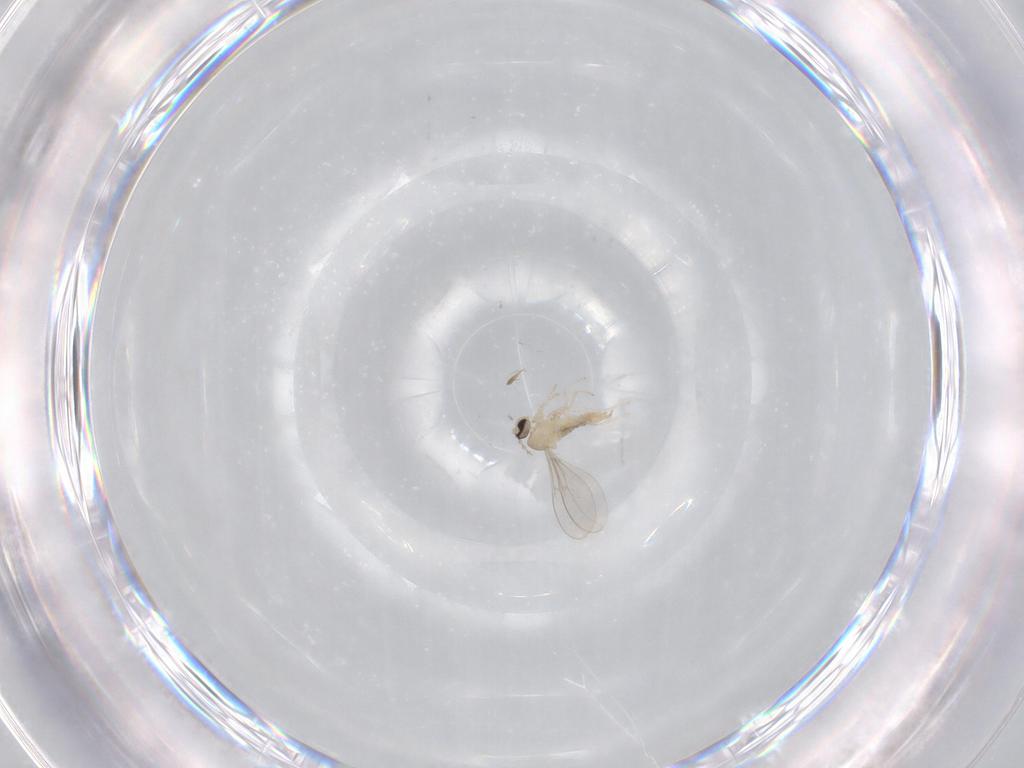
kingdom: Animalia
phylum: Arthropoda
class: Insecta
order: Diptera
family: Cecidomyiidae
